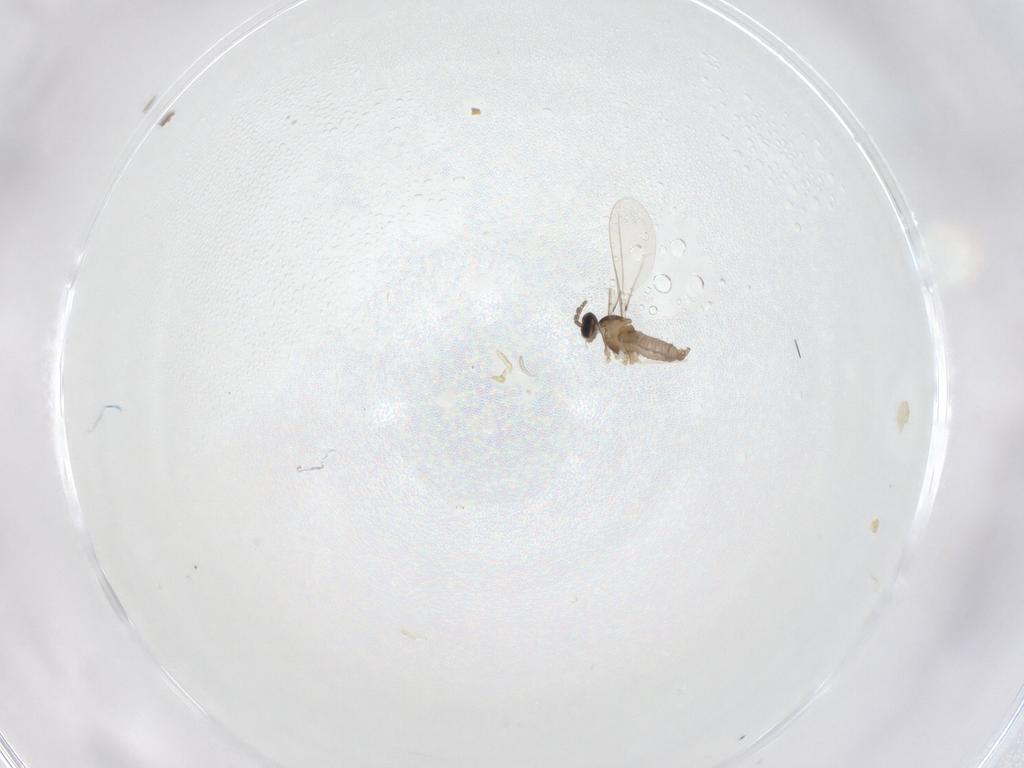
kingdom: Animalia
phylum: Arthropoda
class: Insecta
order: Diptera
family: Cecidomyiidae
